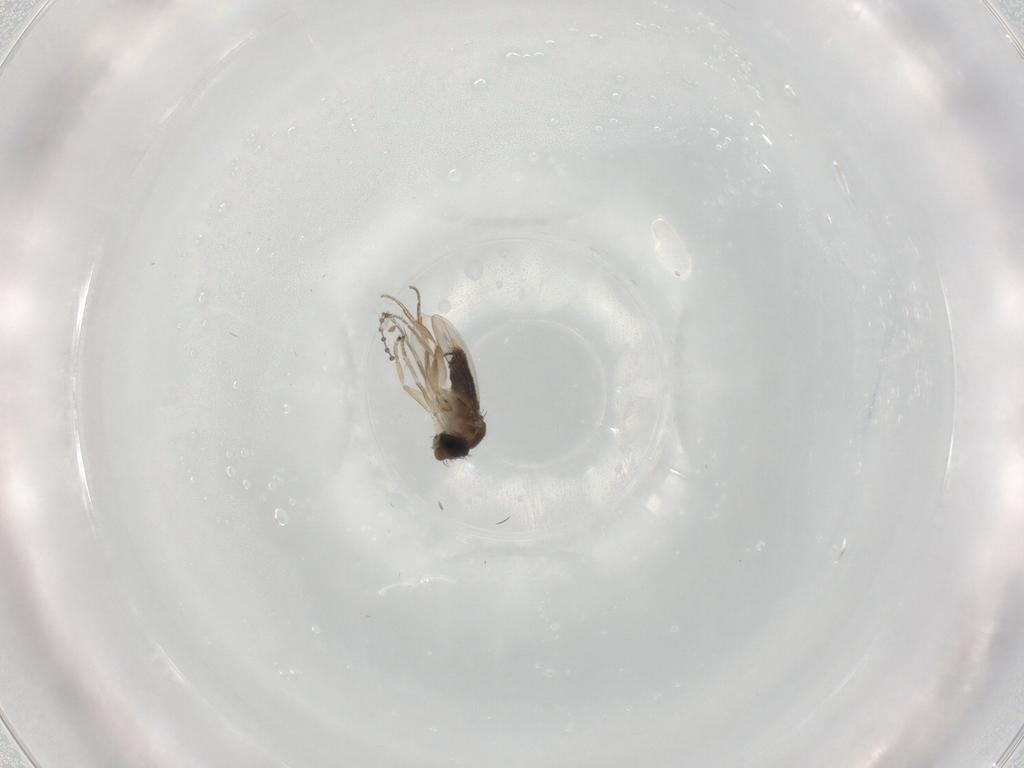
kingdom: Animalia
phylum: Arthropoda
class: Insecta
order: Diptera
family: Phoridae
